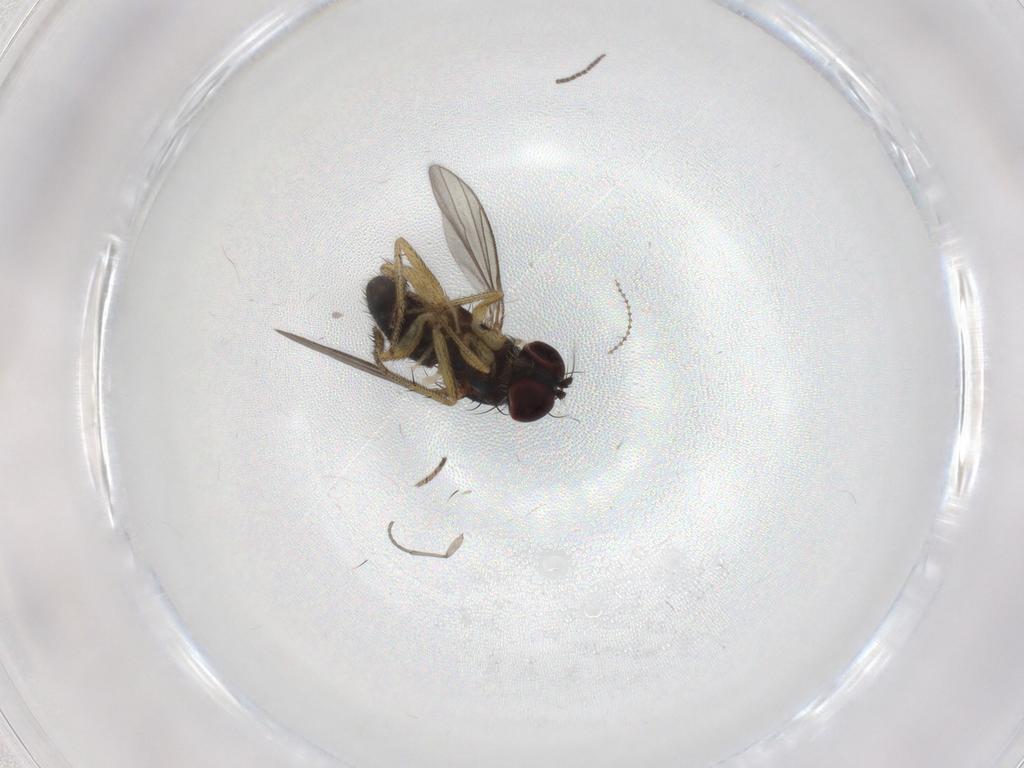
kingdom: Animalia
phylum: Arthropoda
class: Insecta
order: Diptera
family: Sciaridae
